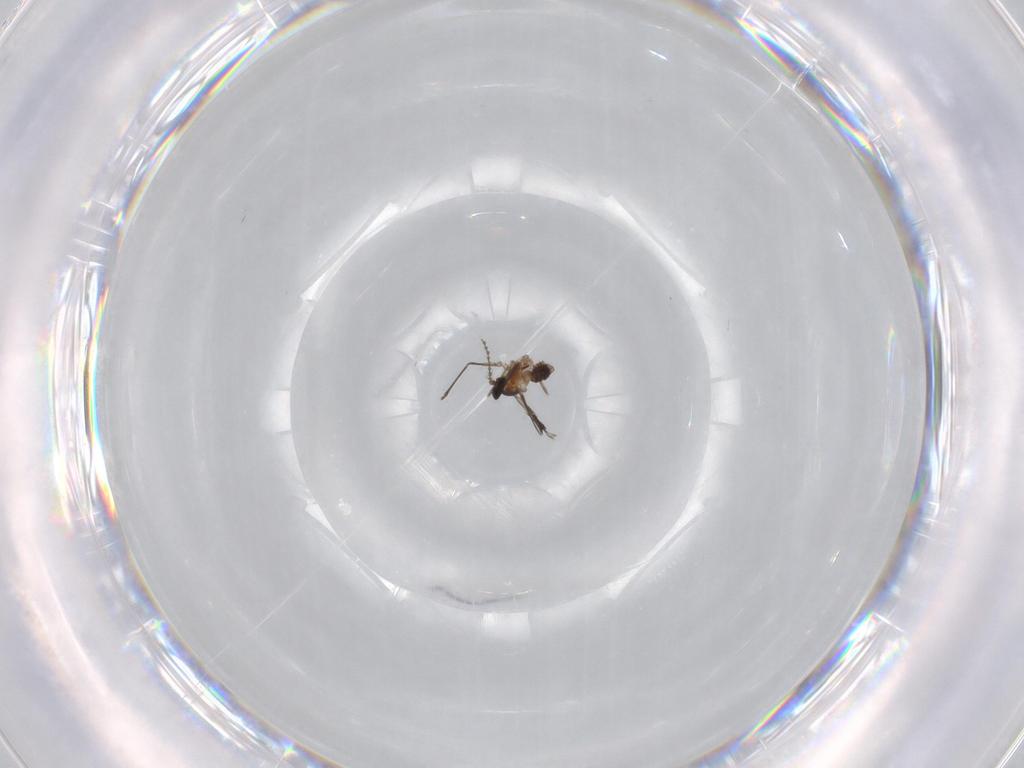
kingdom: Animalia
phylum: Arthropoda
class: Insecta
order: Diptera
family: Cecidomyiidae
